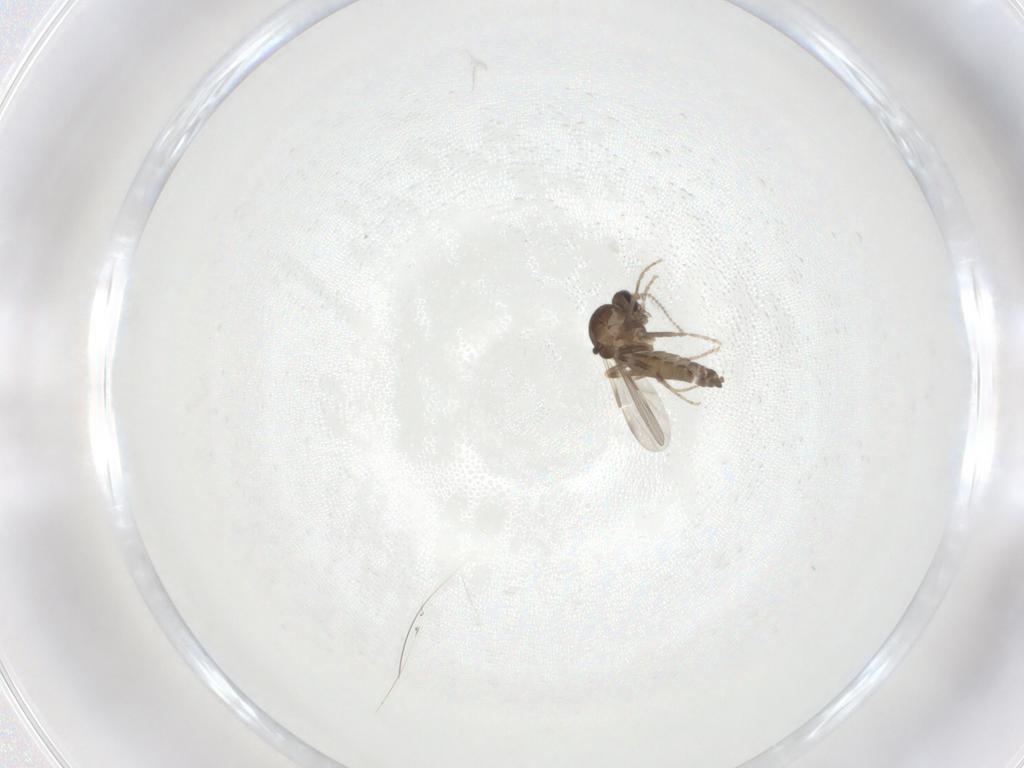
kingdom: Animalia
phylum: Arthropoda
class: Insecta
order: Diptera
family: Ceratopogonidae
